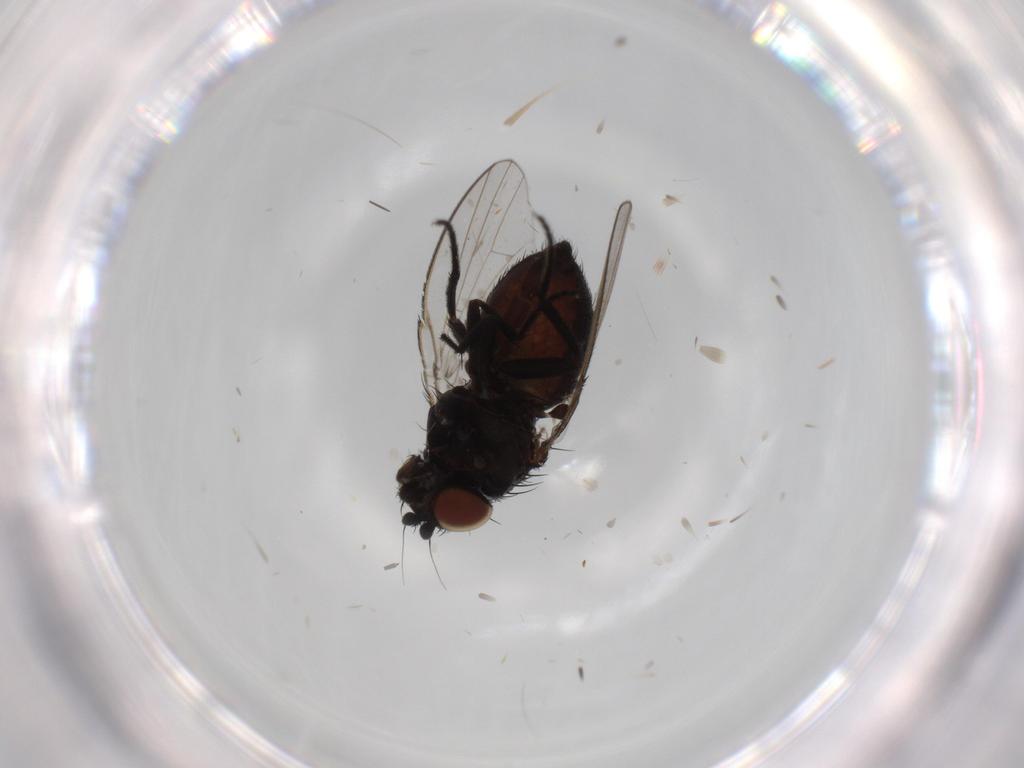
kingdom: Animalia
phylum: Arthropoda
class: Insecta
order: Diptera
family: Milichiidae
